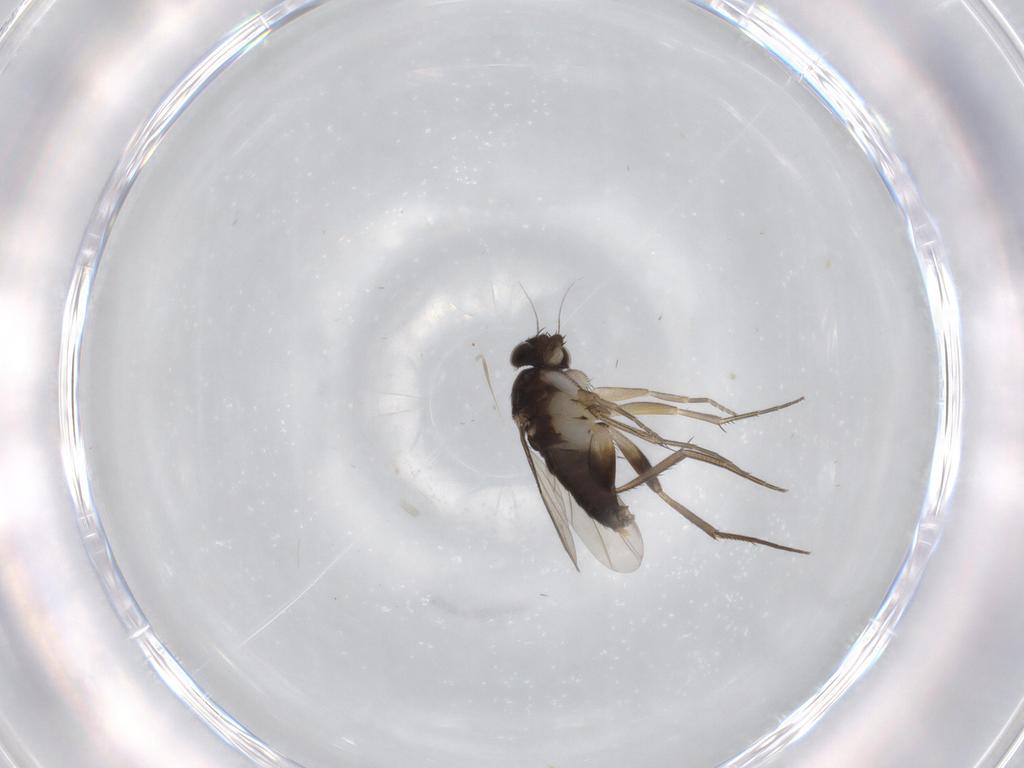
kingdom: Animalia
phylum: Arthropoda
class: Insecta
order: Diptera
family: Phoridae
